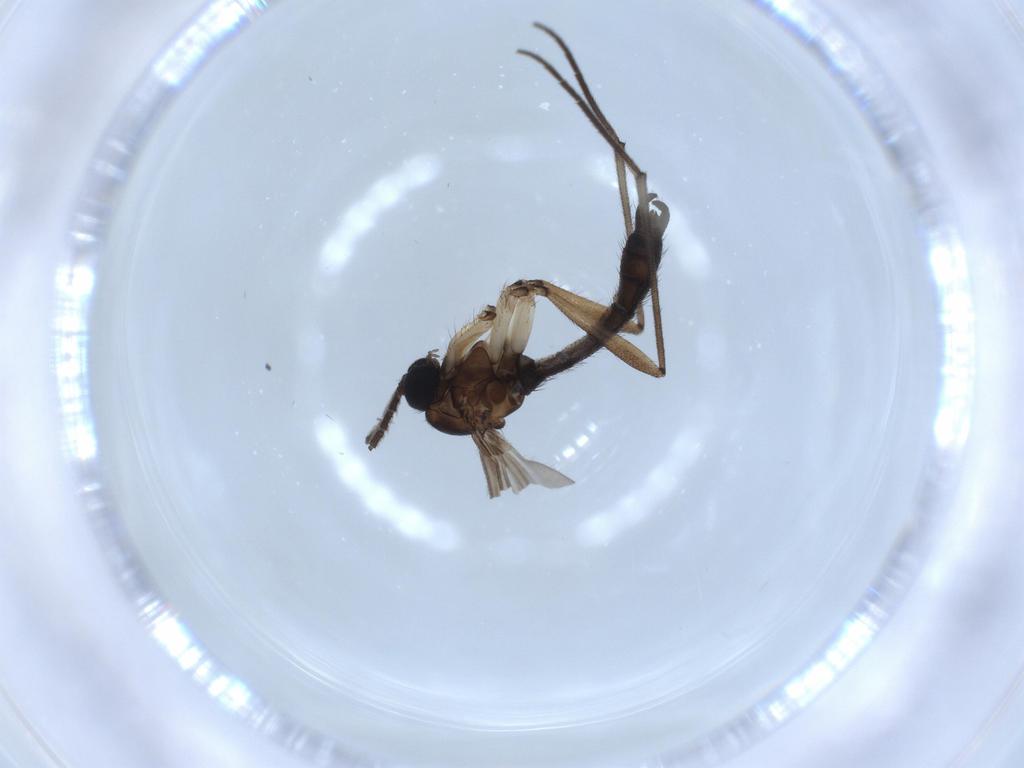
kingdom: Animalia
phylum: Arthropoda
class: Insecta
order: Diptera
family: Sciaridae
